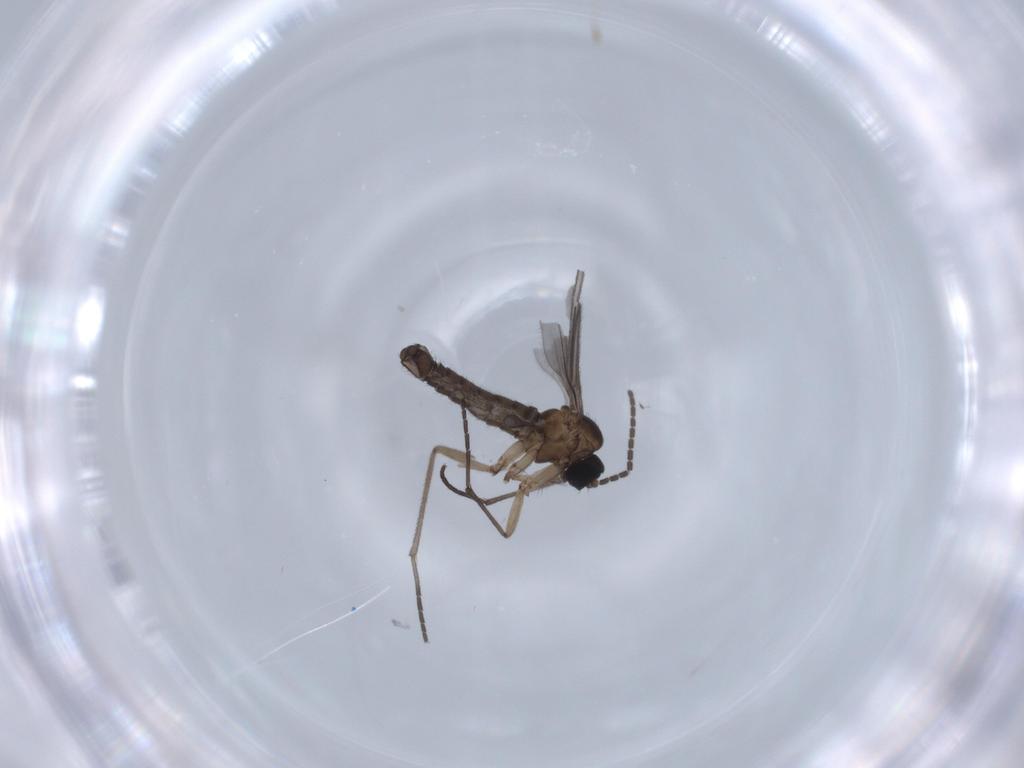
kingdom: Animalia
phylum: Arthropoda
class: Insecta
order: Diptera
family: Sciaridae
